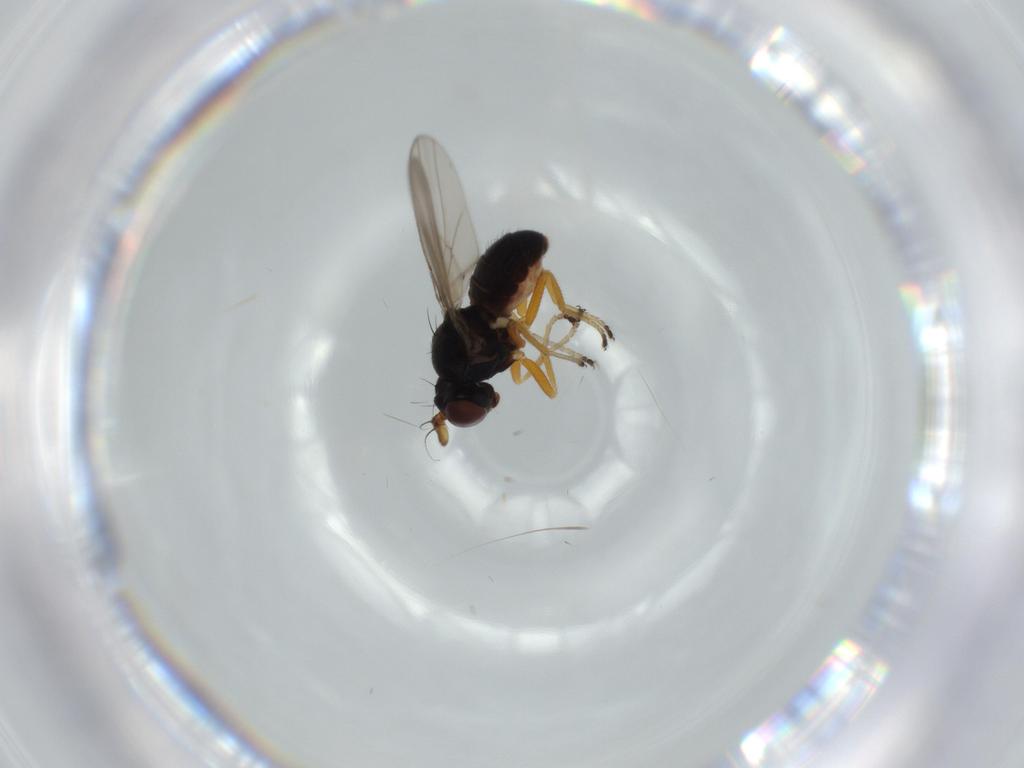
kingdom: Animalia
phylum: Arthropoda
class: Insecta
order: Diptera
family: Ephydridae
